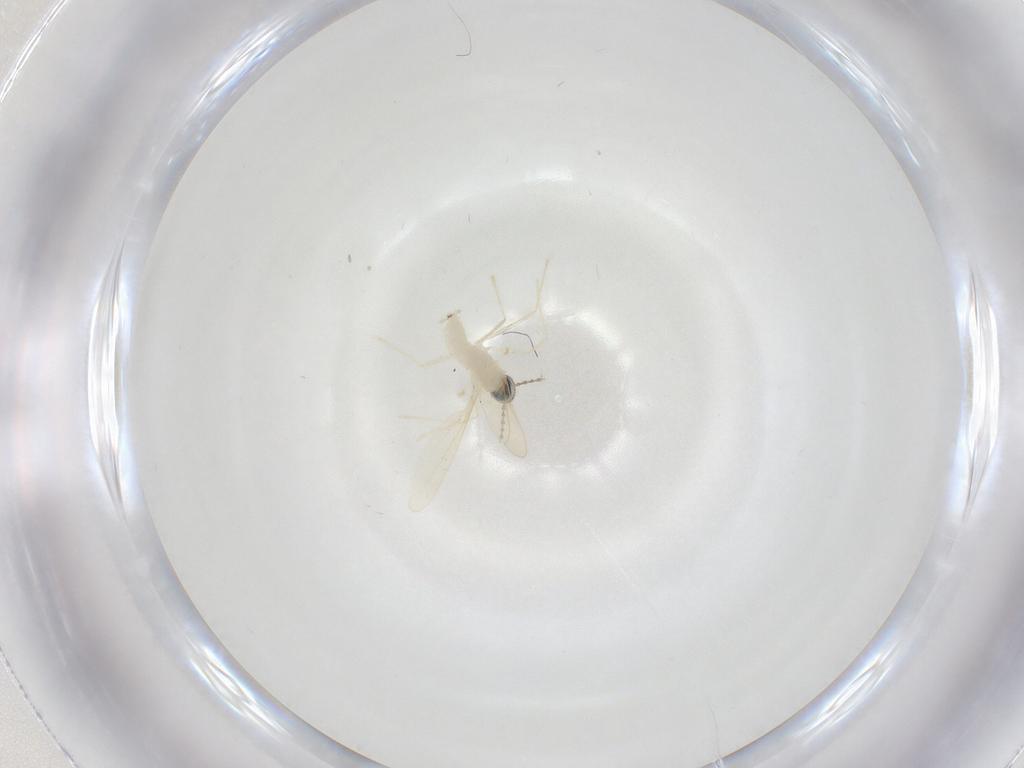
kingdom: Animalia
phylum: Arthropoda
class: Insecta
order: Diptera
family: Cecidomyiidae
